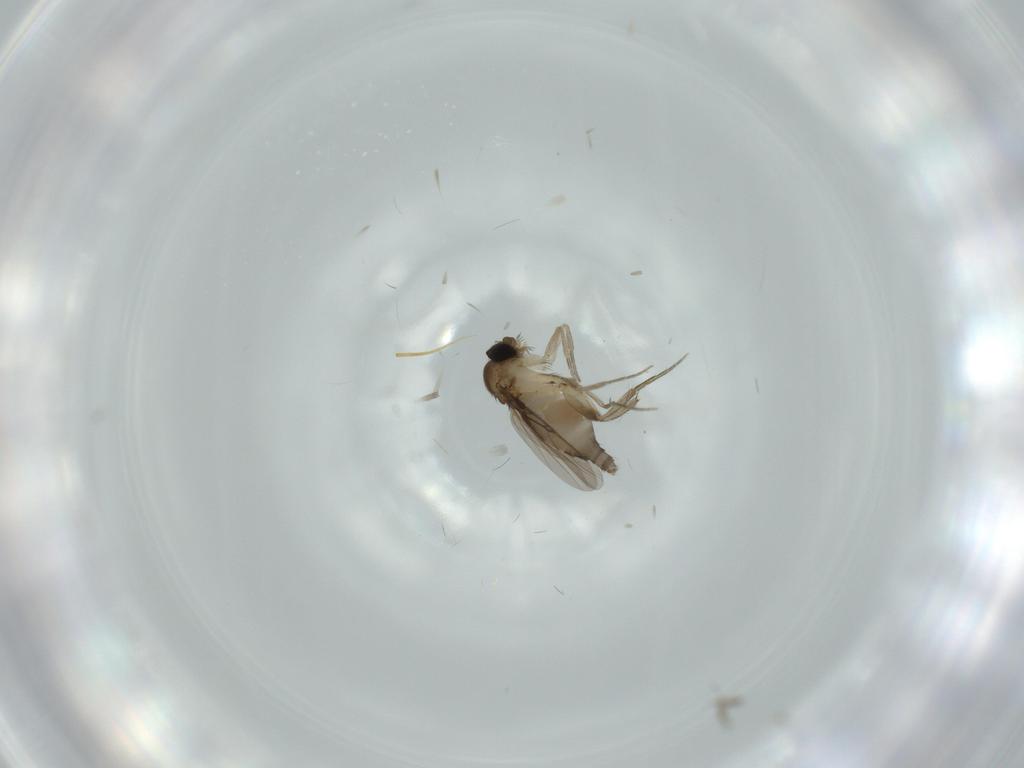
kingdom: Animalia
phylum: Arthropoda
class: Insecta
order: Diptera
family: Phoridae
